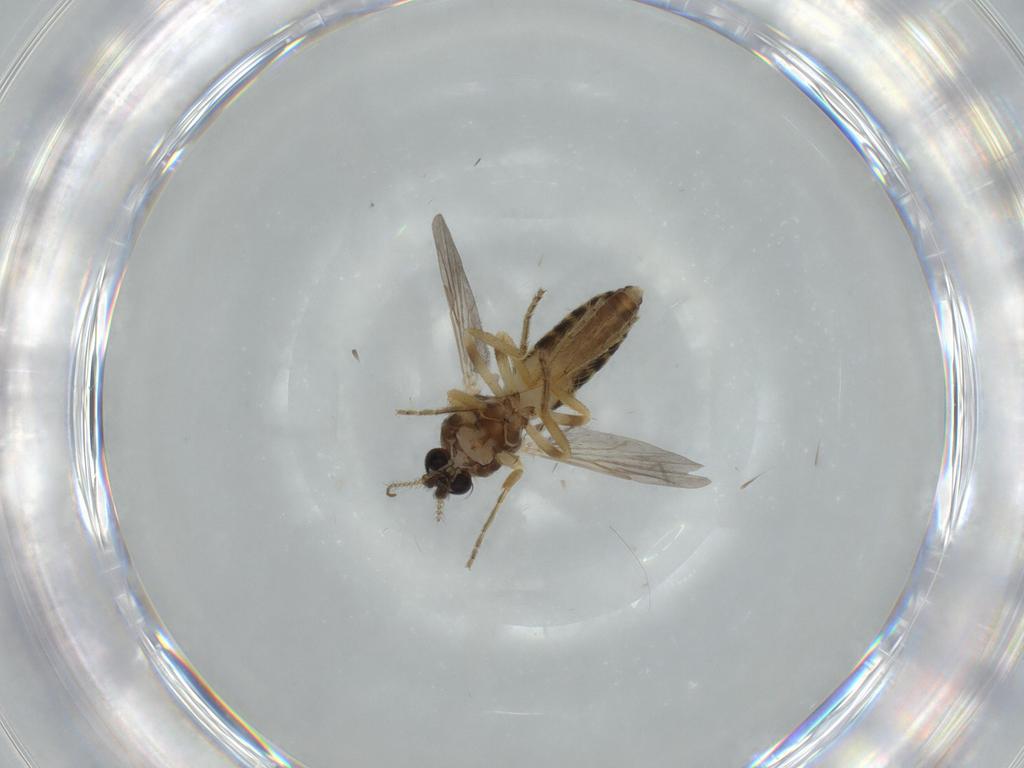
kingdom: Animalia
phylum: Arthropoda
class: Insecta
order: Diptera
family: Ceratopogonidae
